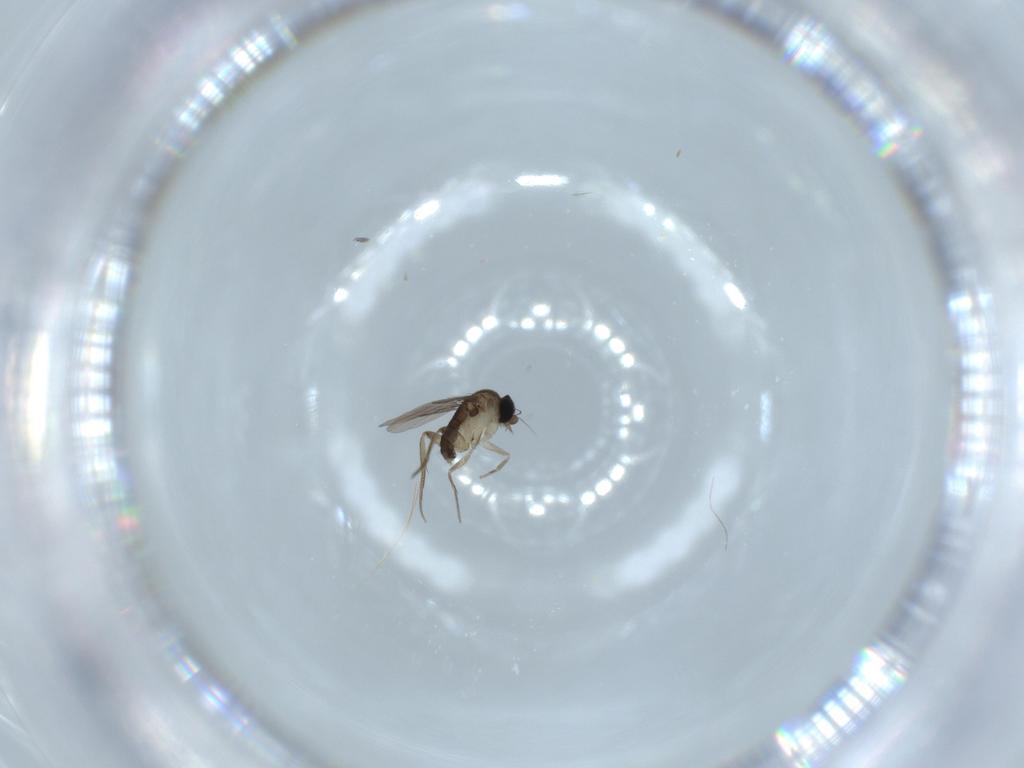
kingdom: Animalia
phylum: Arthropoda
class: Insecta
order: Diptera
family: Phoridae
